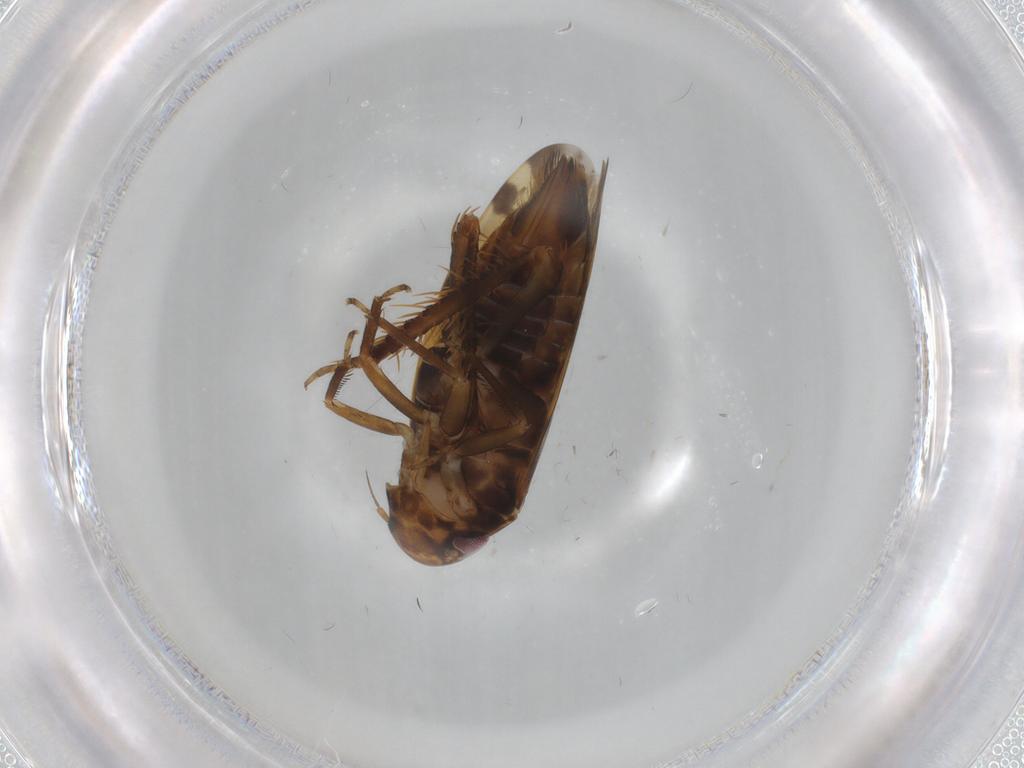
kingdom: Animalia
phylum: Arthropoda
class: Insecta
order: Hemiptera
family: Cicadellidae
